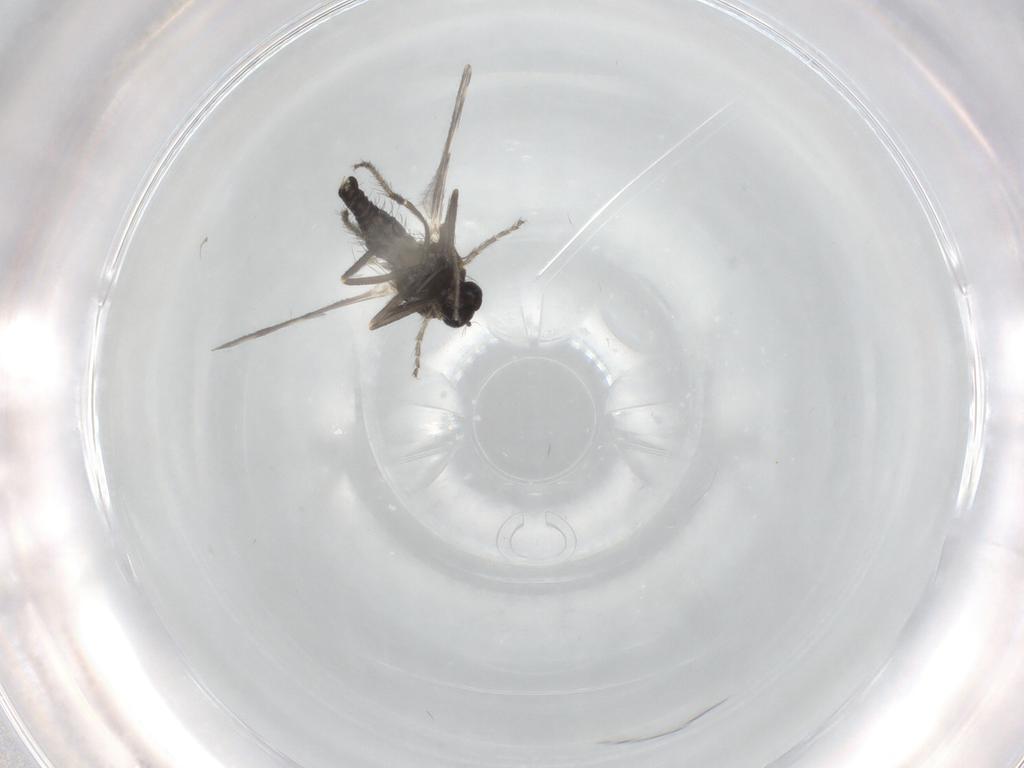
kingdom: Animalia
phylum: Arthropoda
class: Insecta
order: Diptera
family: Ceratopogonidae
